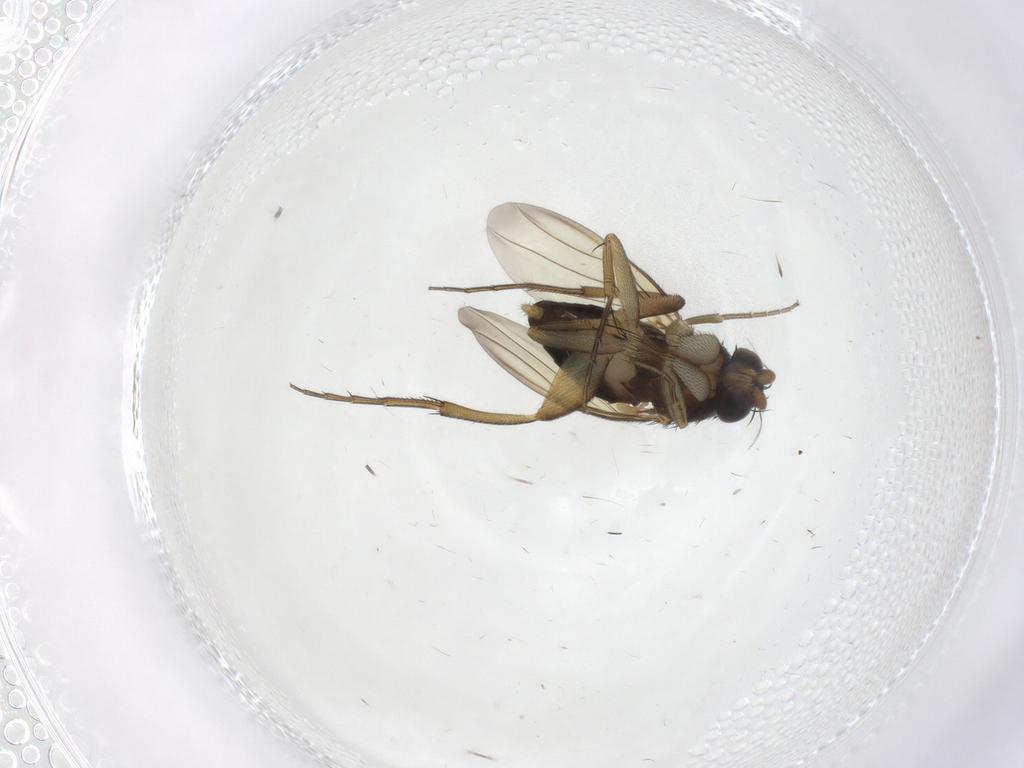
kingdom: Animalia
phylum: Arthropoda
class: Insecta
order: Diptera
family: Phoridae
